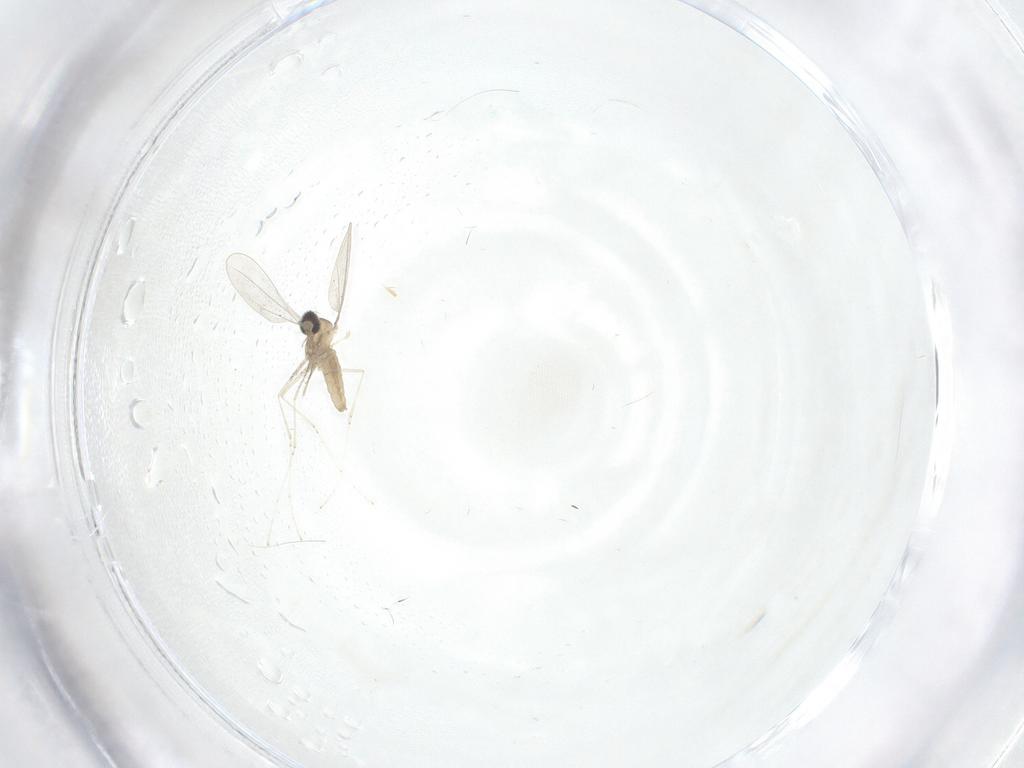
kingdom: Animalia
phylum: Arthropoda
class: Insecta
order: Diptera
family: Cecidomyiidae
